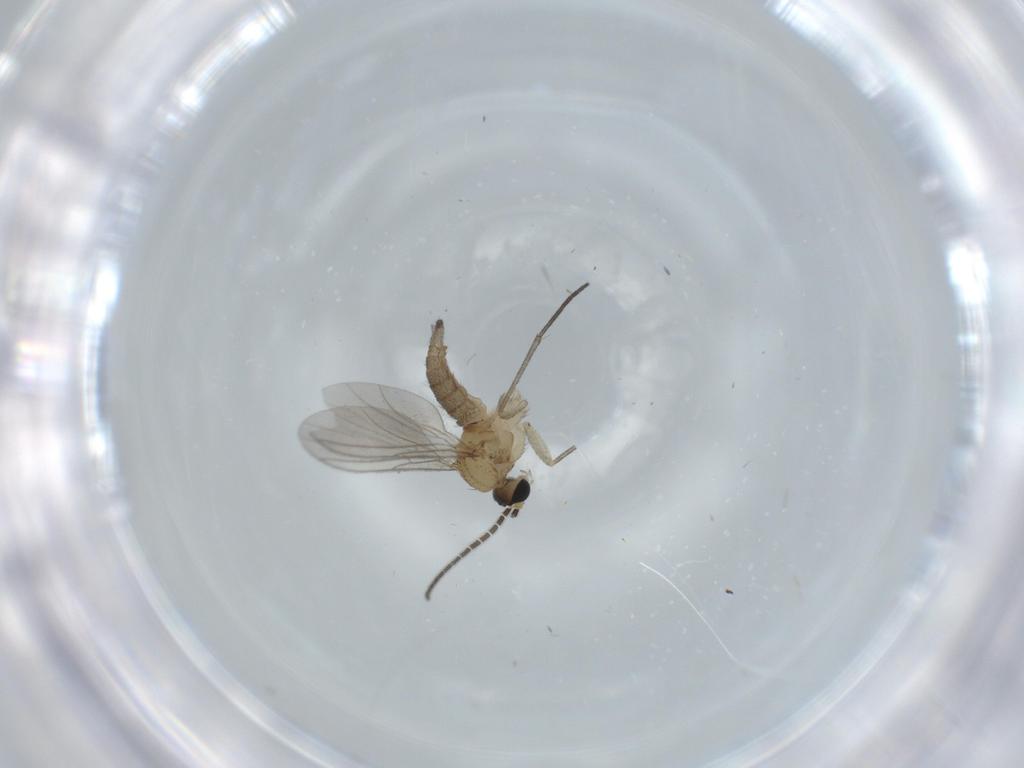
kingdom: Animalia
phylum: Arthropoda
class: Insecta
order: Diptera
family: Sciaridae
